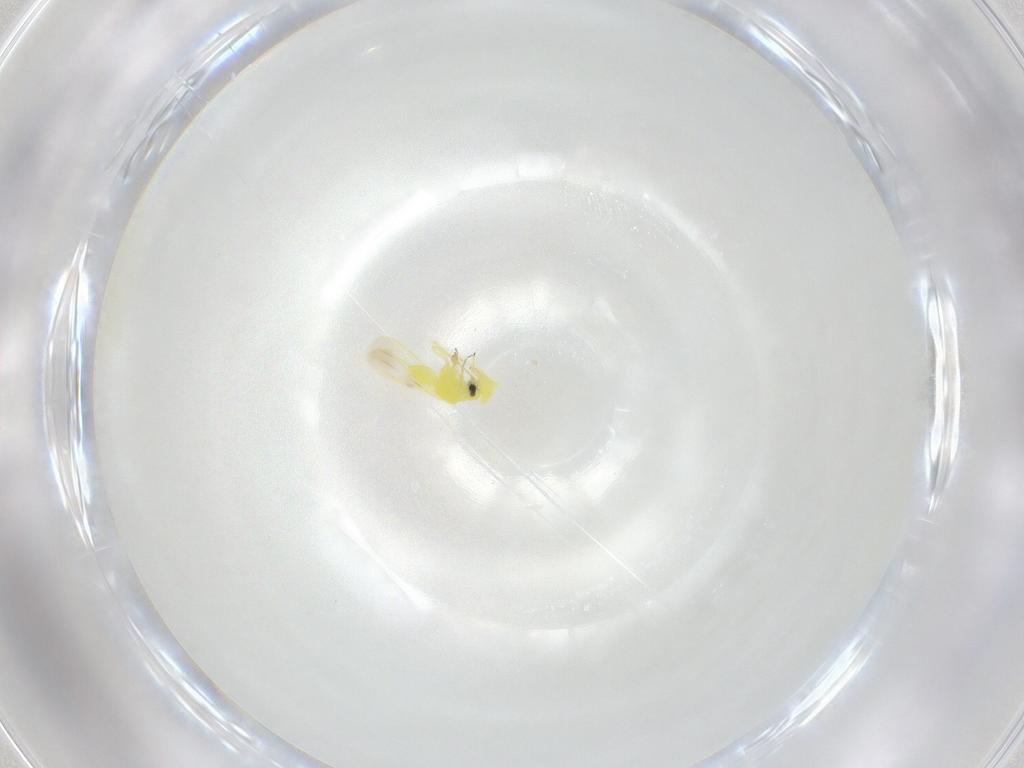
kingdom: Animalia
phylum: Arthropoda
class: Insecta
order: Hemiptera
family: Aleyrodidae
